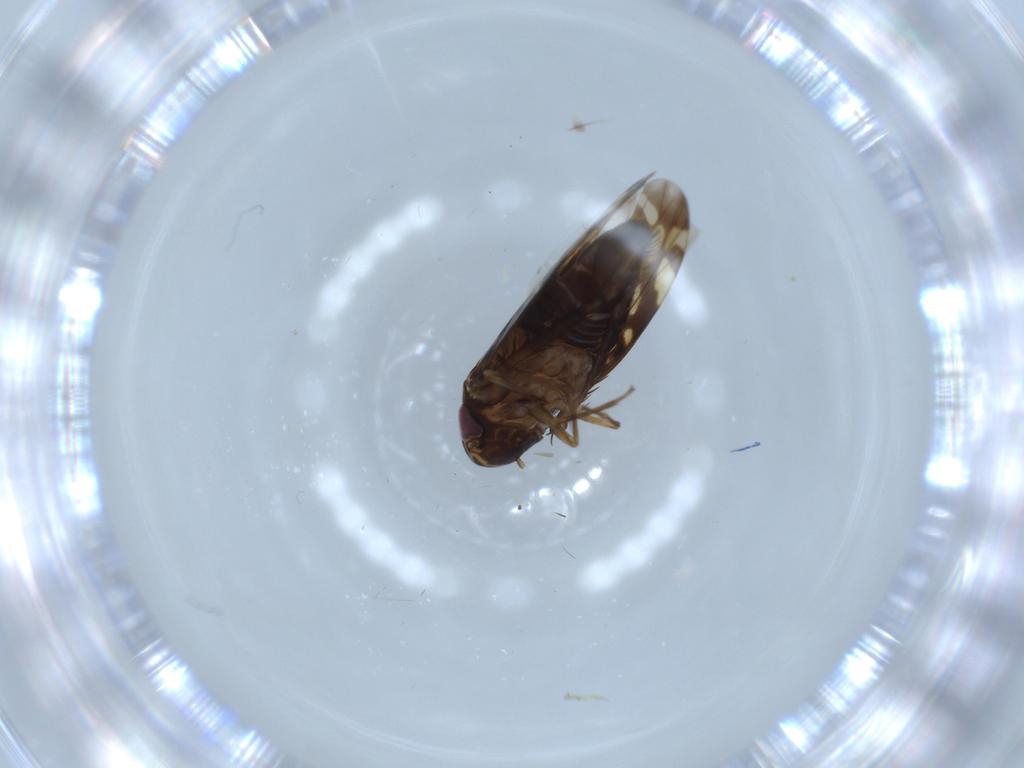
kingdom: Animalia
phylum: Arthropoda
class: Insecta
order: Hemiptera
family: Cicadellidae
